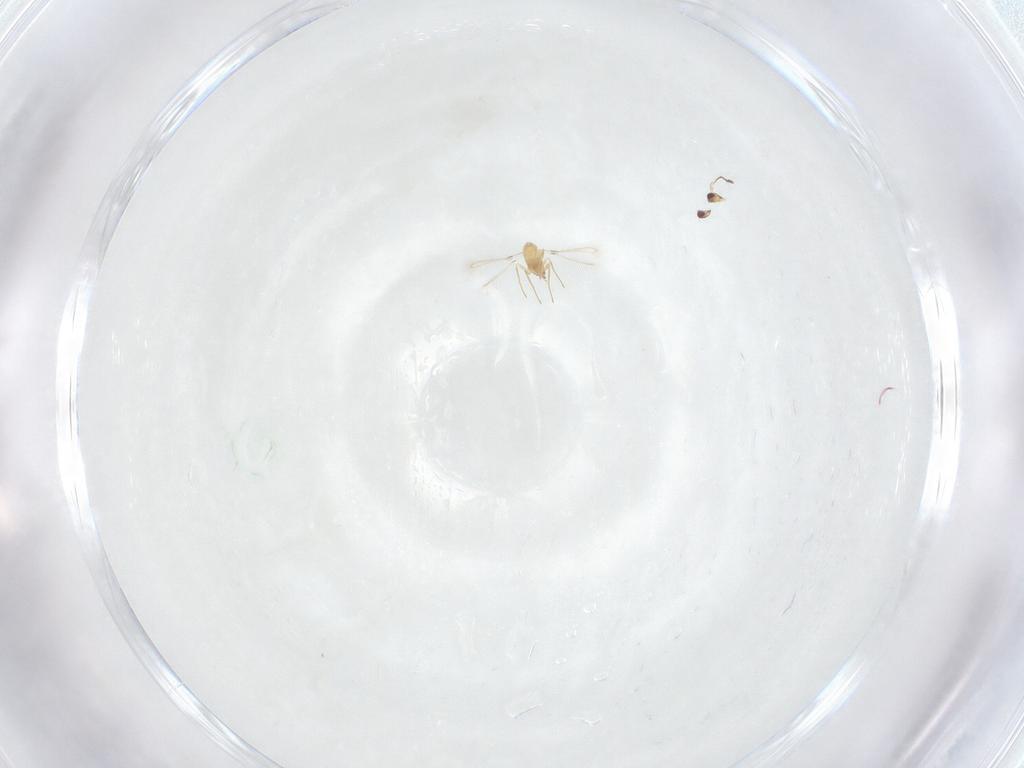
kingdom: Animalia
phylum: Arthropoda
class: Insecta
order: Hymenoptera
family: Mymaridae
